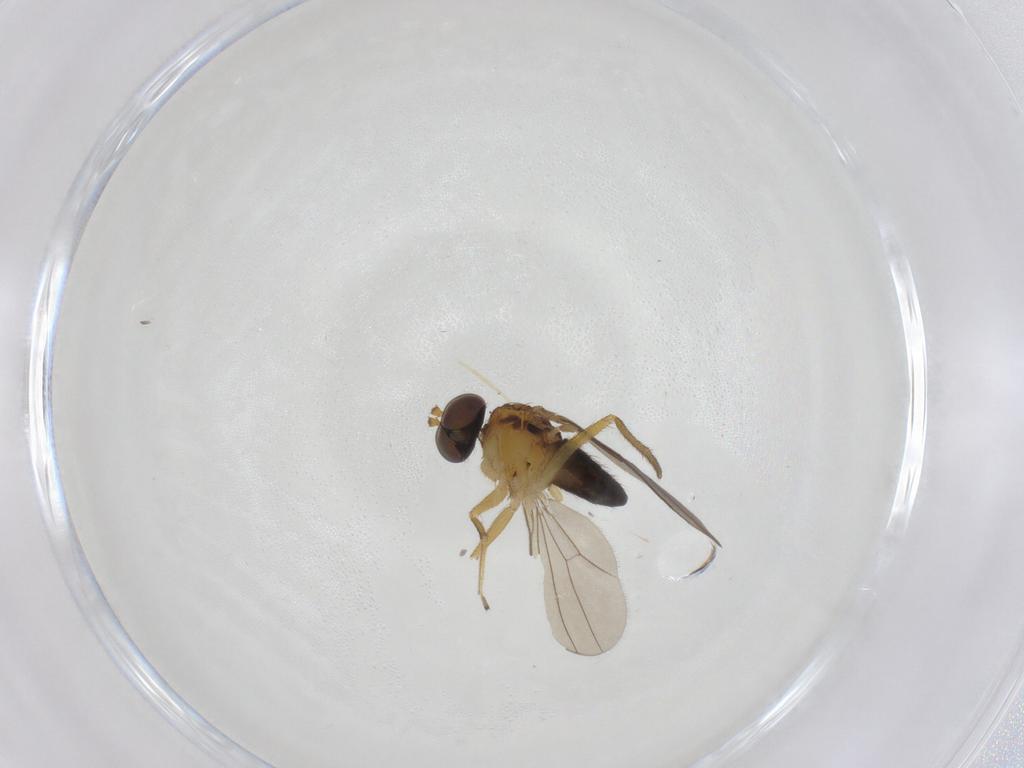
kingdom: Animalia
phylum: Arthropoda
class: Insecta
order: Diptera
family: Dolichopodidae
